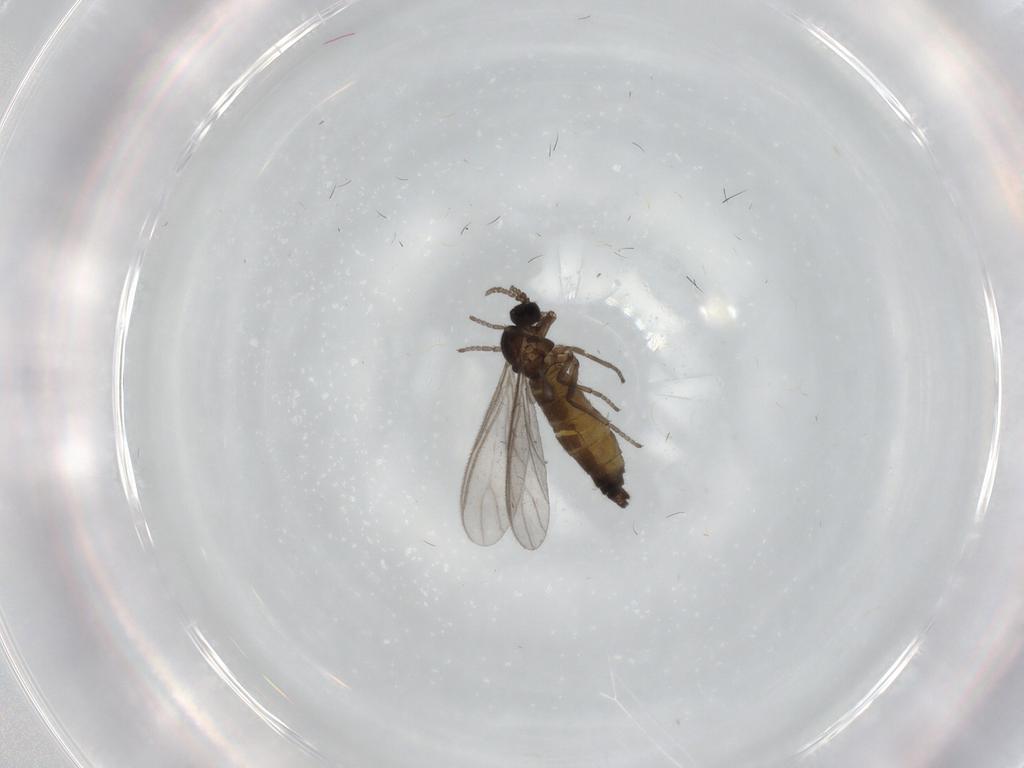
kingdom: Animalia
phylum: Arthropoda
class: Insecta
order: Diptera
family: Sciaridae
